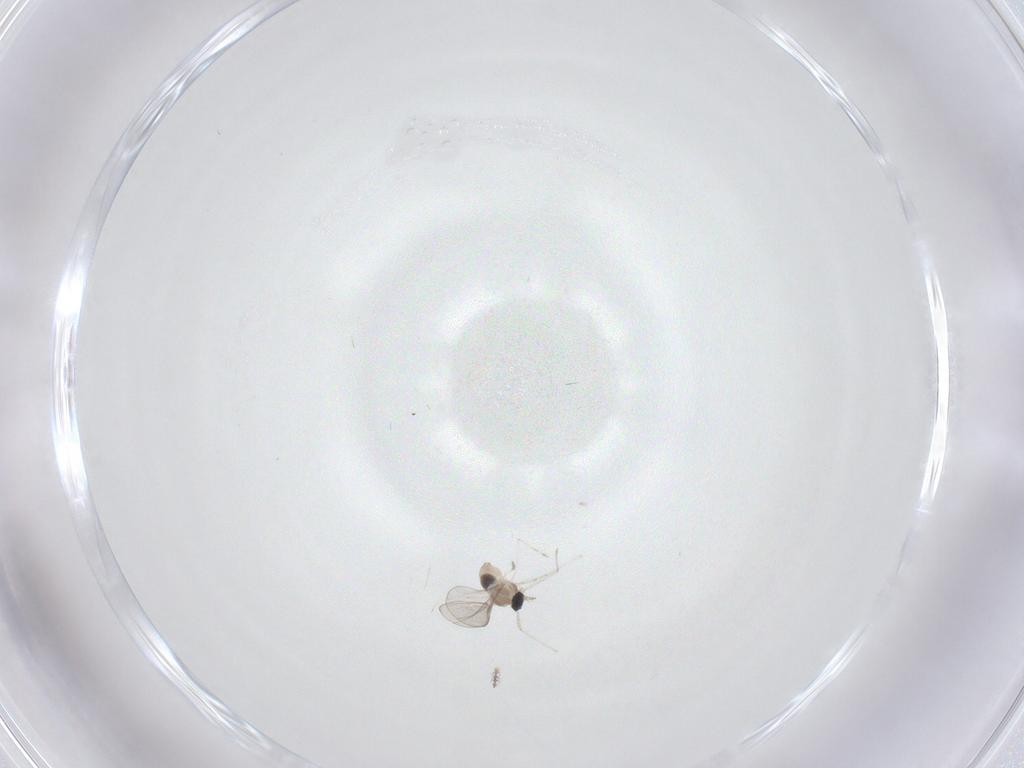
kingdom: Animalia
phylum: Arthropoda
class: Insecta
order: Diptera
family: Cecidomyiidae
